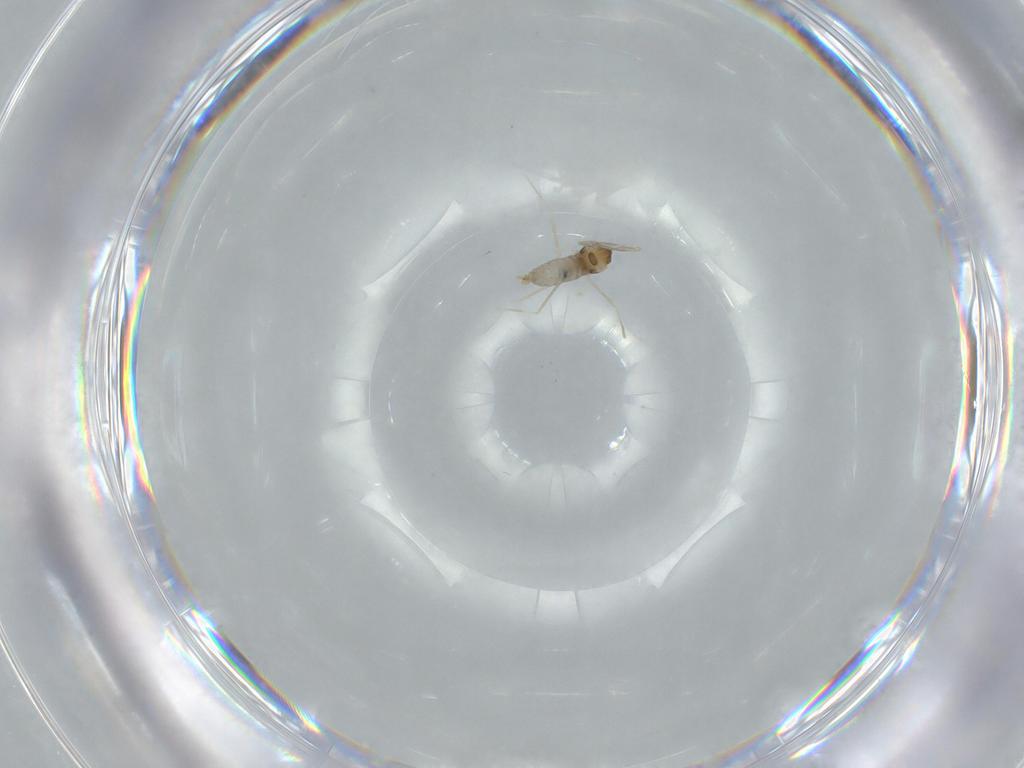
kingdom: Animalia
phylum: Arthropoda
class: Insecta
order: Diptera
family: Cecidomyiidae
